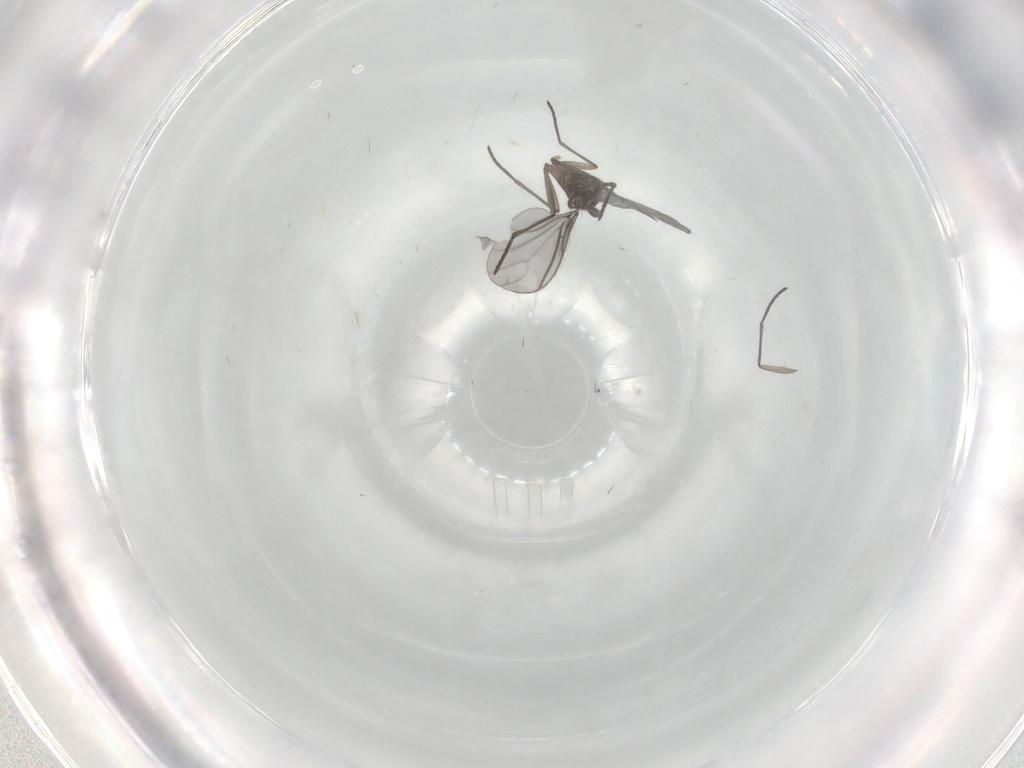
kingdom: Animalia
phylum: Arthropoda
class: Insecta
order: Diptera
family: Sciaridae
